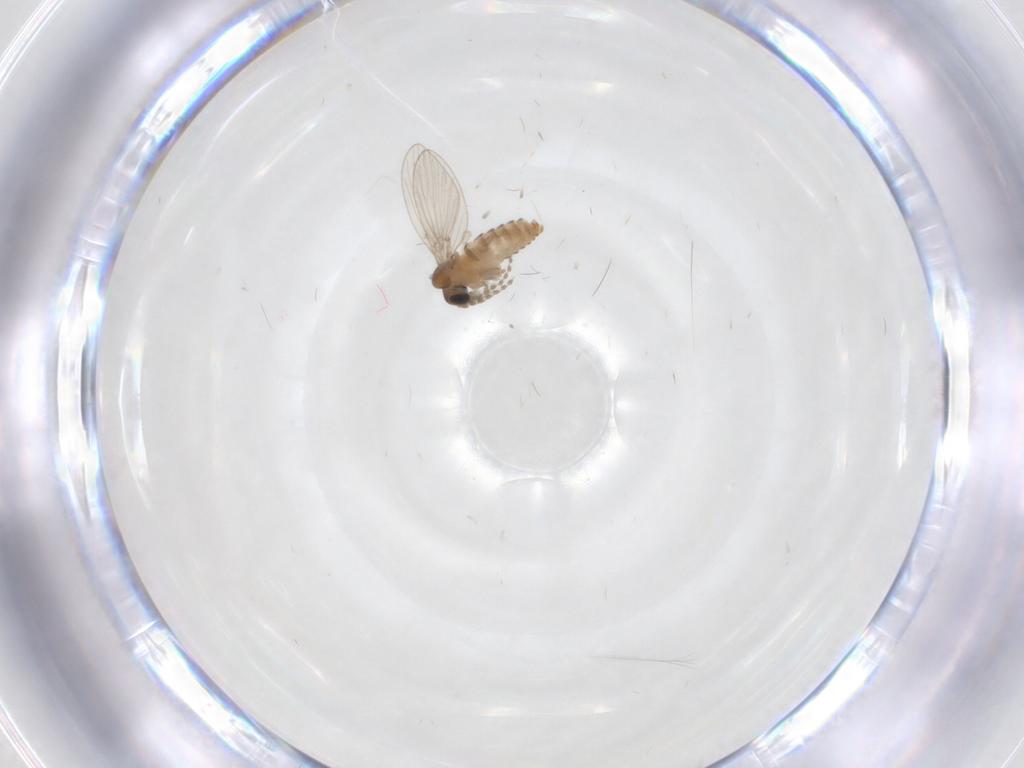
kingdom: Animalia
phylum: Arthropoda
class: Insecta
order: Diptera
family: Psychodidae
